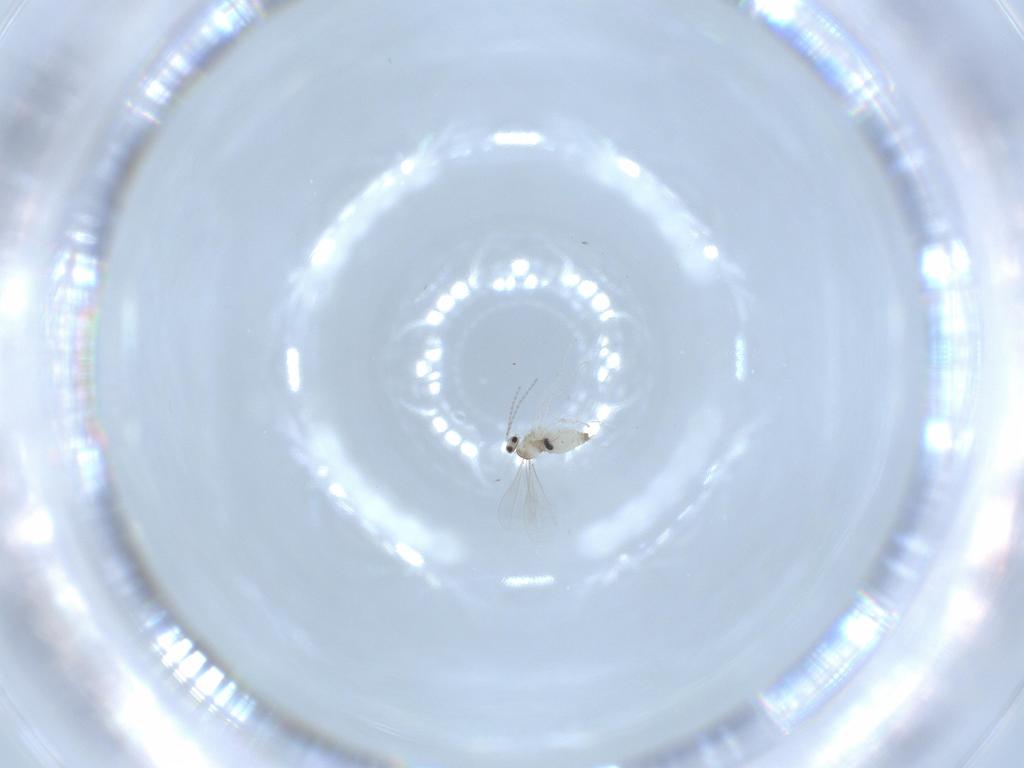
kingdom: Animalia
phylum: Arthropoda
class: Insecta
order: Diptera
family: Cecidomyiidae
